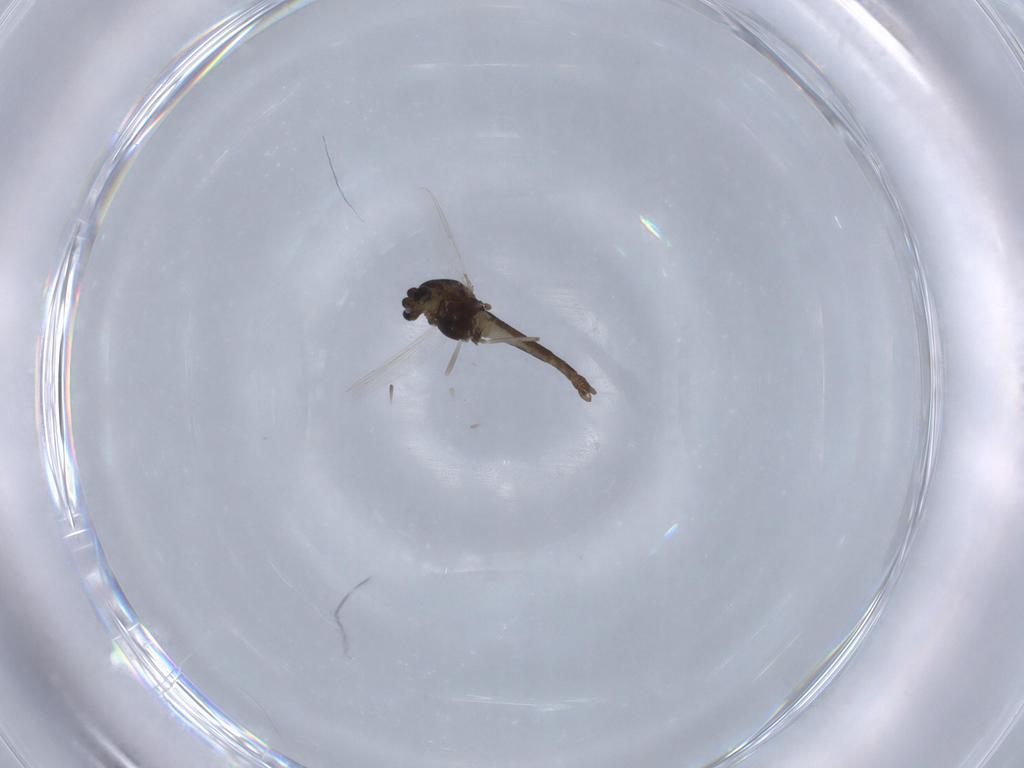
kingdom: Animalia
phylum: Arthropoda
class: Insecta
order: Diptera
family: Chironomidae
